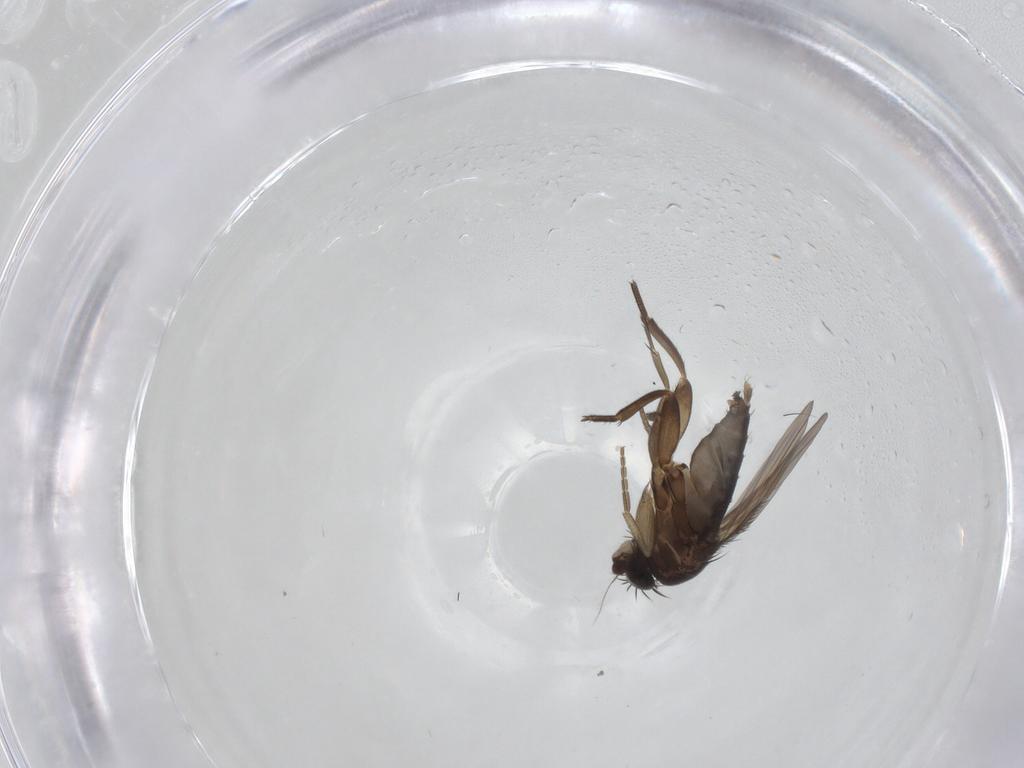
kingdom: Animalia
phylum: Arthropoda
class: Insecta
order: Diptera
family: Phoridae
